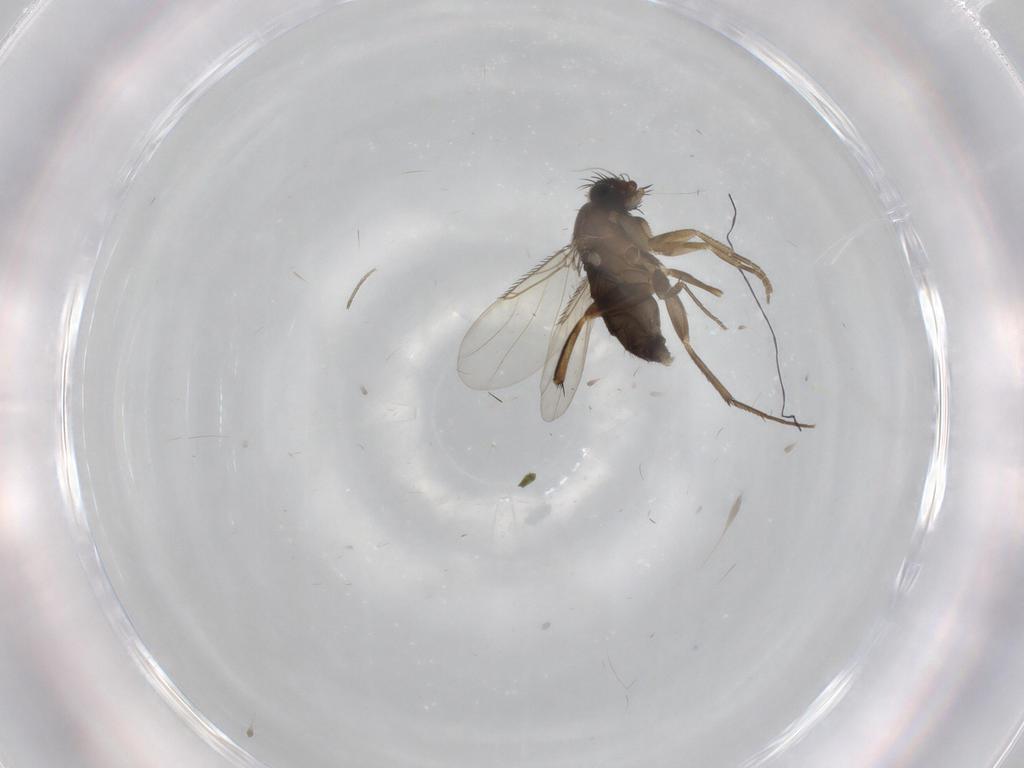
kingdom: Animalia
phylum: Arthropoda
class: Insecta
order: Diptera
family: Phoridae
